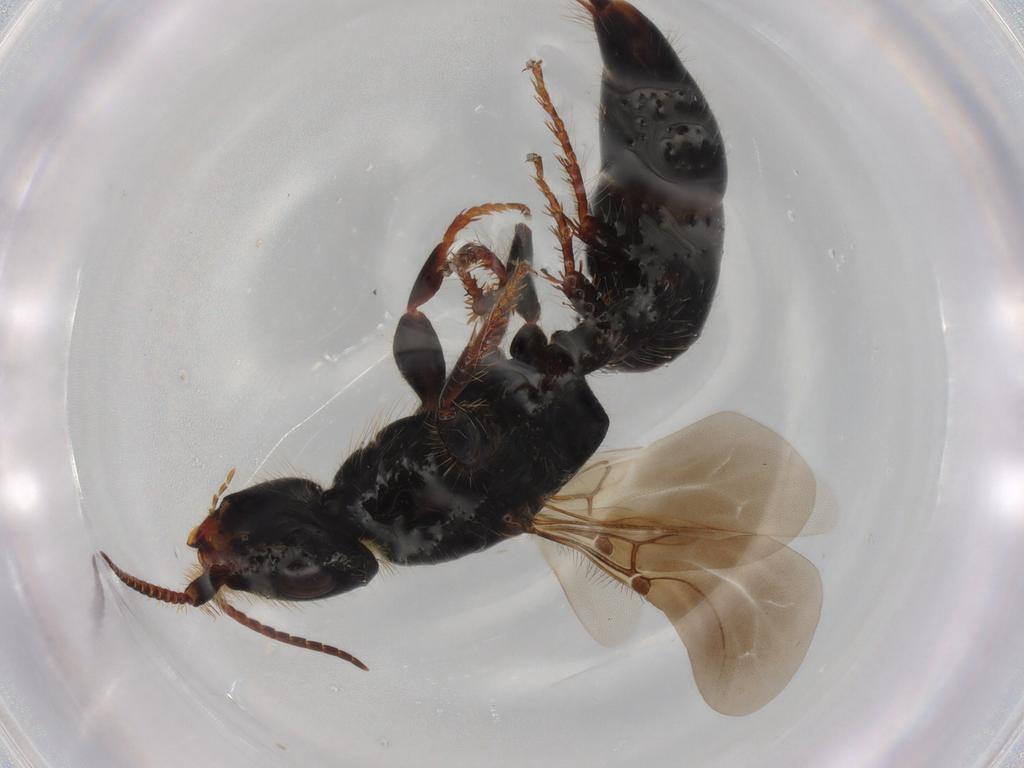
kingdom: Animalia
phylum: Arthropoda
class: Insecta
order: Hymenoptera
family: Bethylidae
